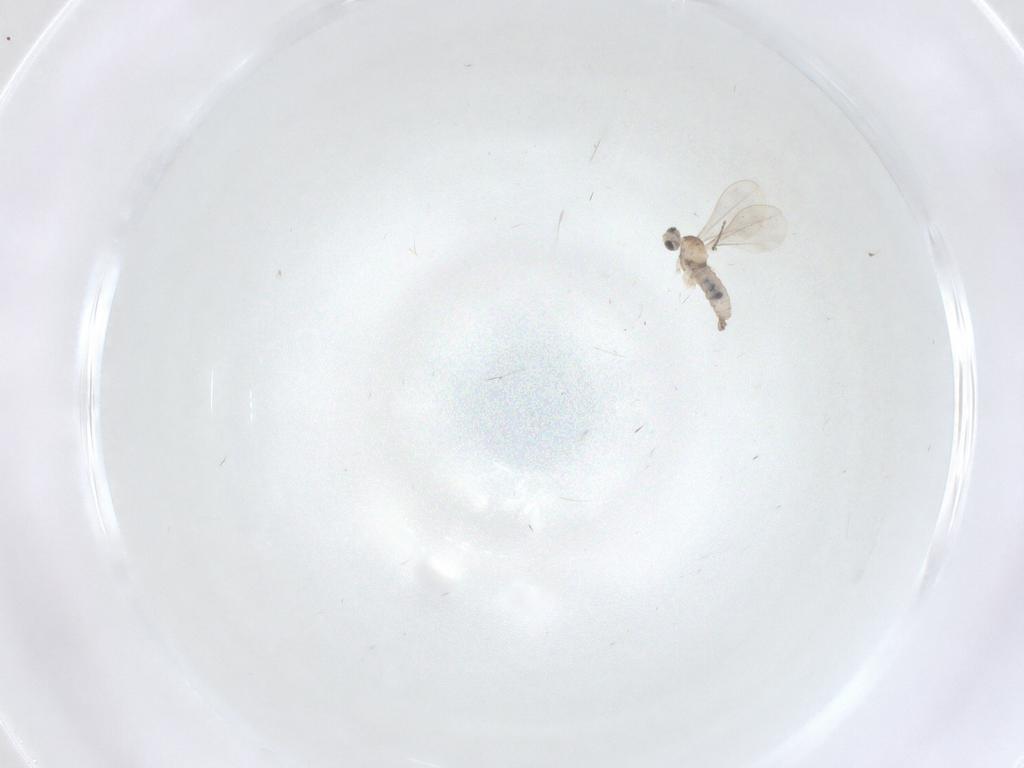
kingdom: Animalia
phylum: Arthropoda
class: Insecta
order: Diptera
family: Cecidomyiidae
